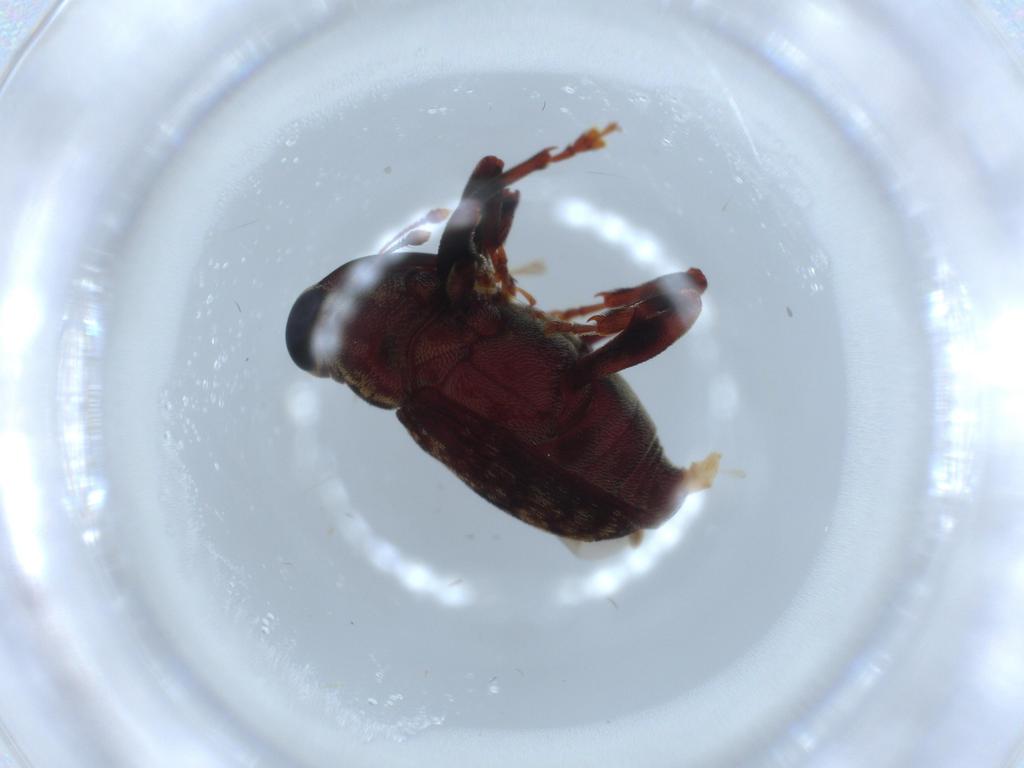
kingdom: Animalia
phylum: Arthropoda
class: Insecta
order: Coleoptera
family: Curculionidae
